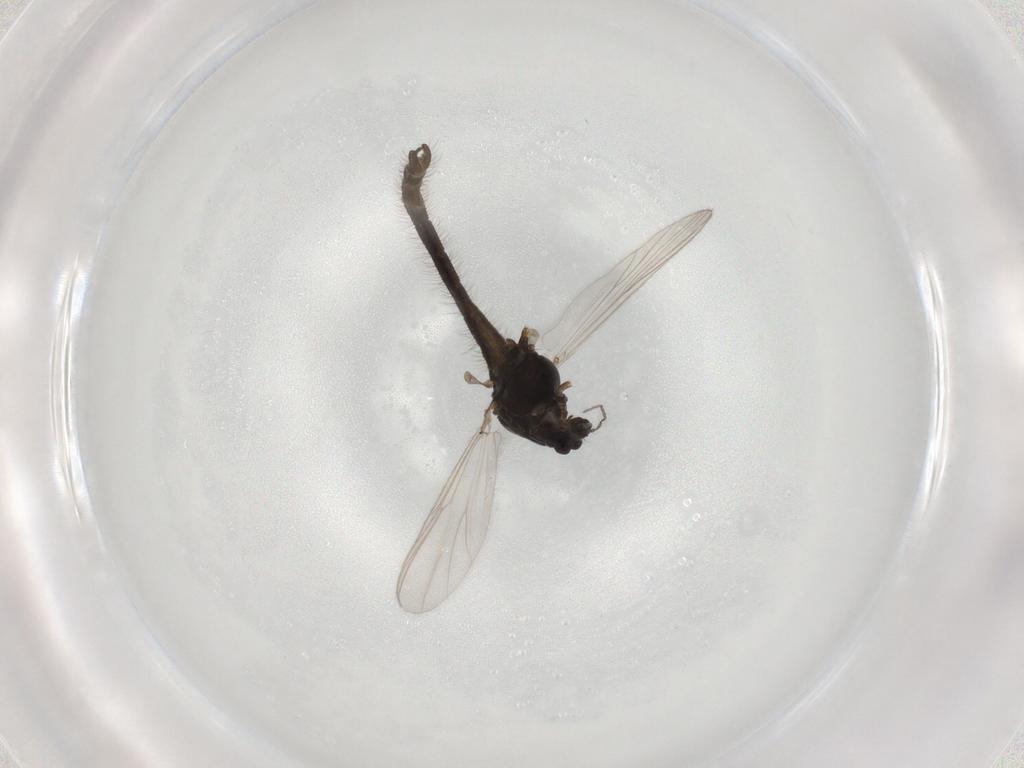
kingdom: Animalia
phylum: Arthropoda
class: Insecta
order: Diptera
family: Chironomidae
